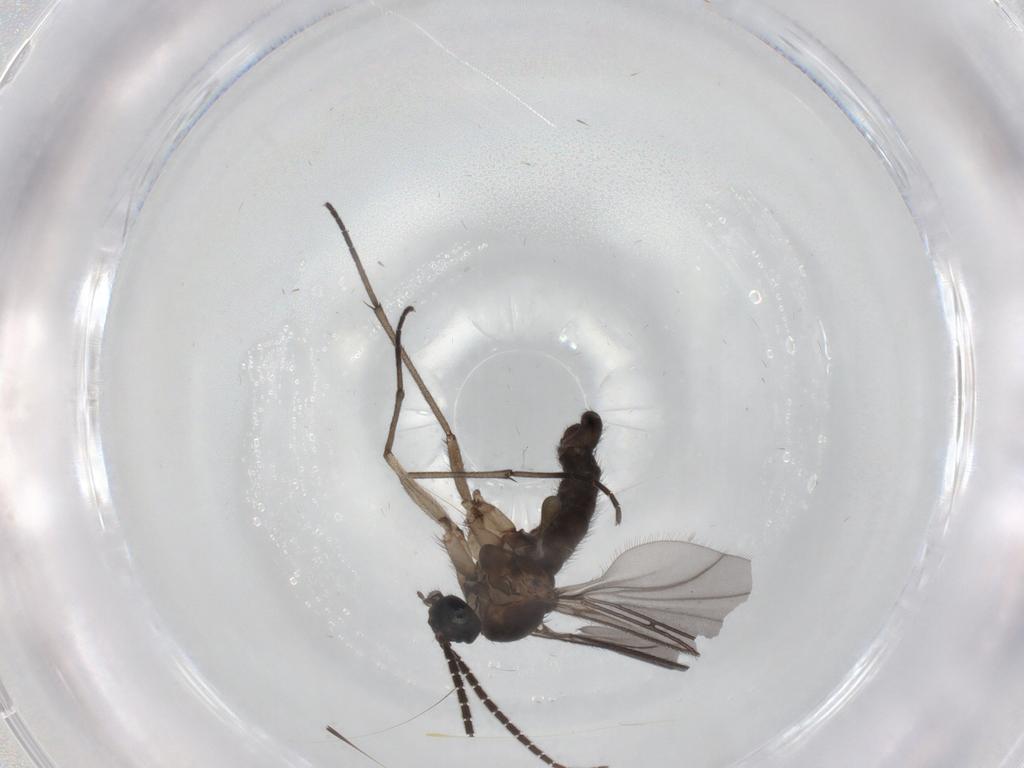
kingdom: Animalia
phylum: Arthropoda
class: Insecta
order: Diptera
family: Sciaridae
